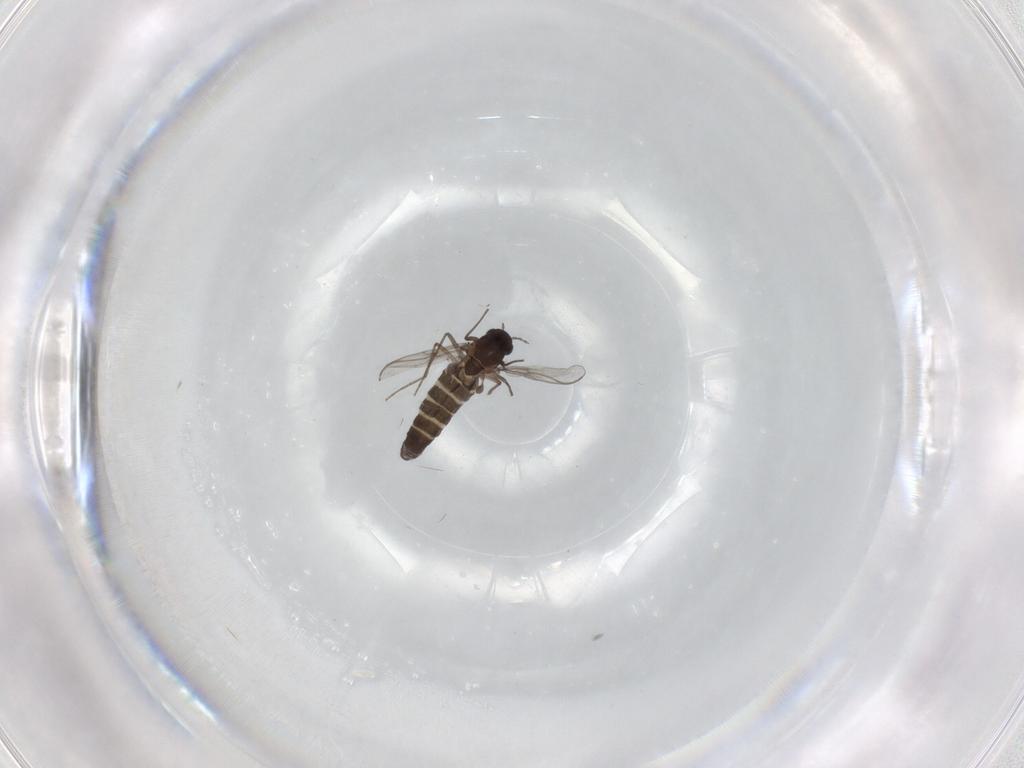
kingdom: Animalia
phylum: Arthropoda
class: Insecta
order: Diptera
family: Chironomidae
